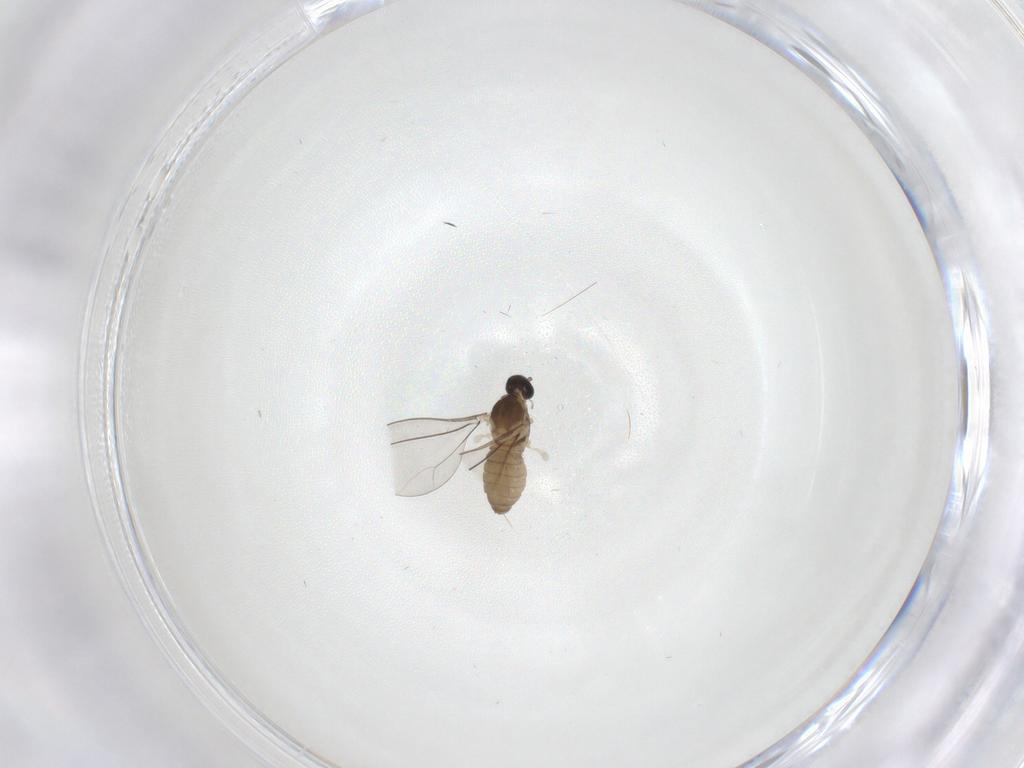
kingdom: Animalia
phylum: Arthropoda
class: Insecta
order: Diptera
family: Cecidomyiidae
